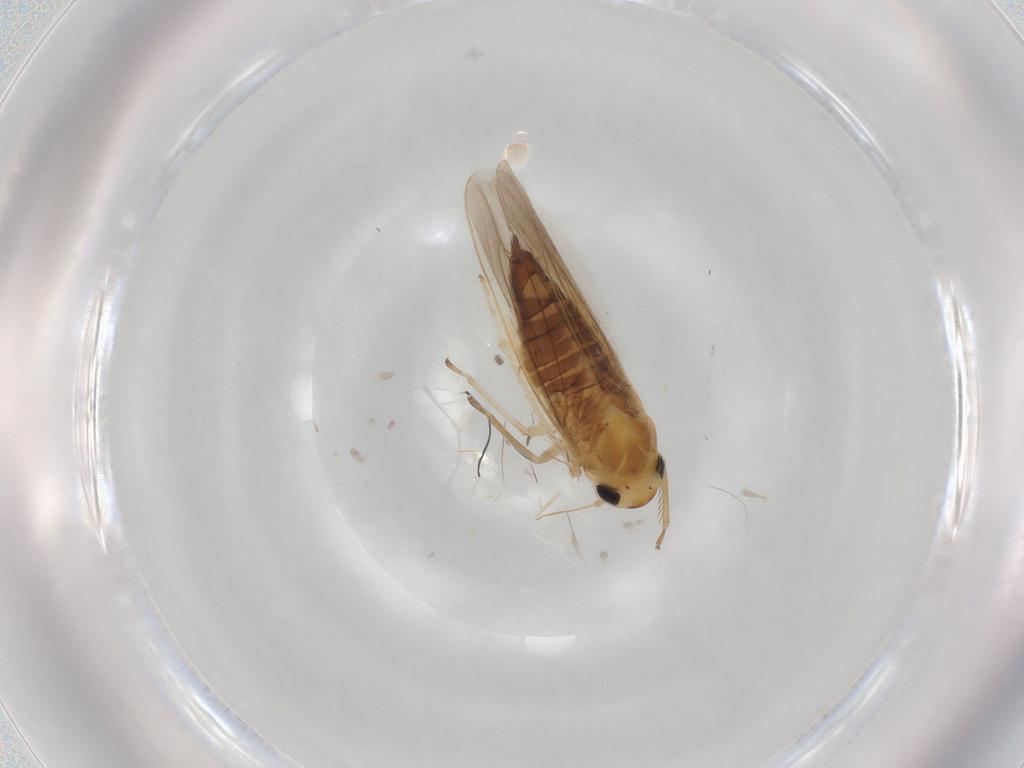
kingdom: Animalia
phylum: Arthropoda
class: Insecta
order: Hemiptera
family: Cicadellidae
